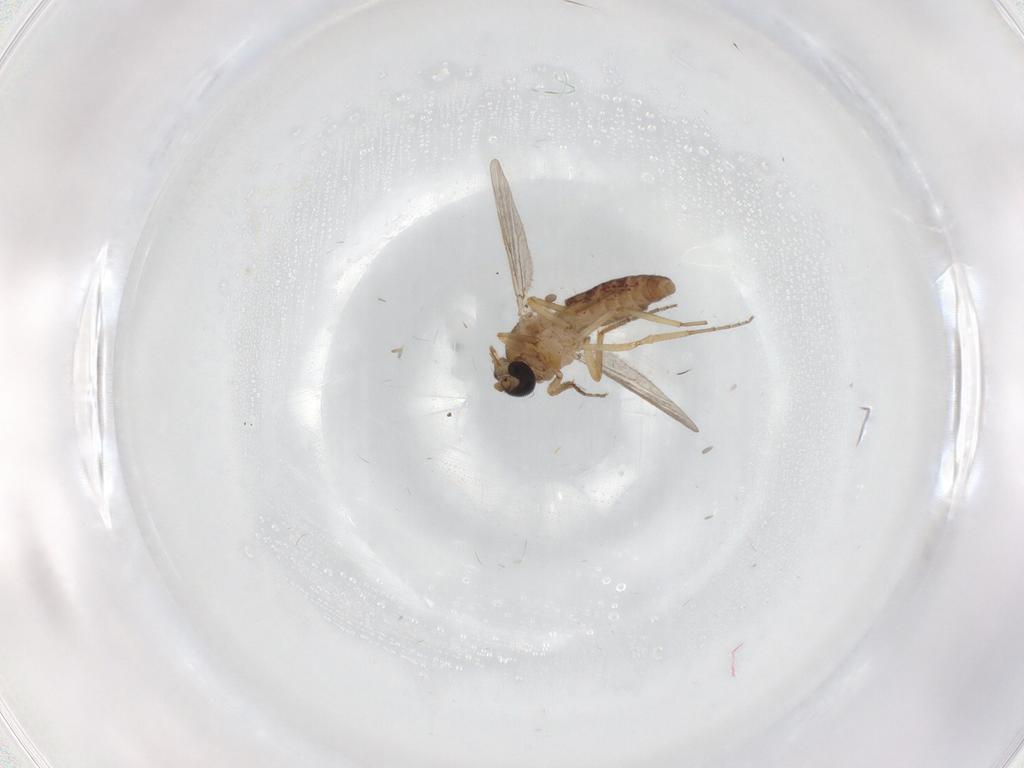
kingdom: Animalia
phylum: Arthropoda
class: Insecta
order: Diptera
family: Ceratopogonidae
